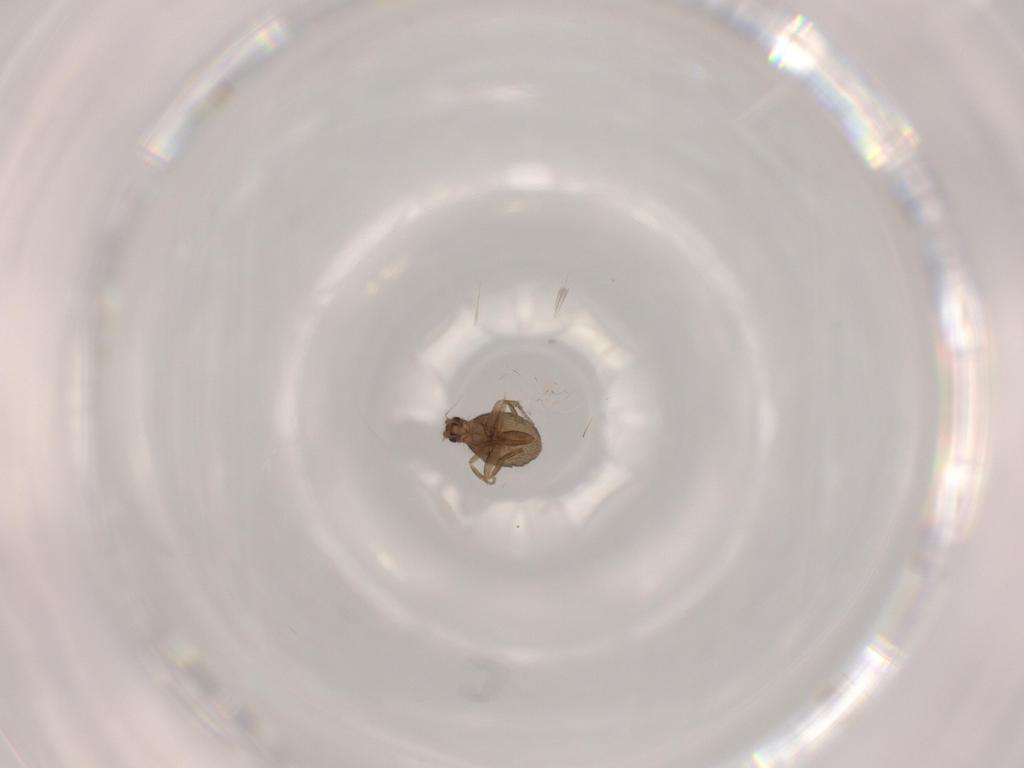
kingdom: Animalia
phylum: Arthropoda
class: Insecta
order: Diptera
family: Phoridae
